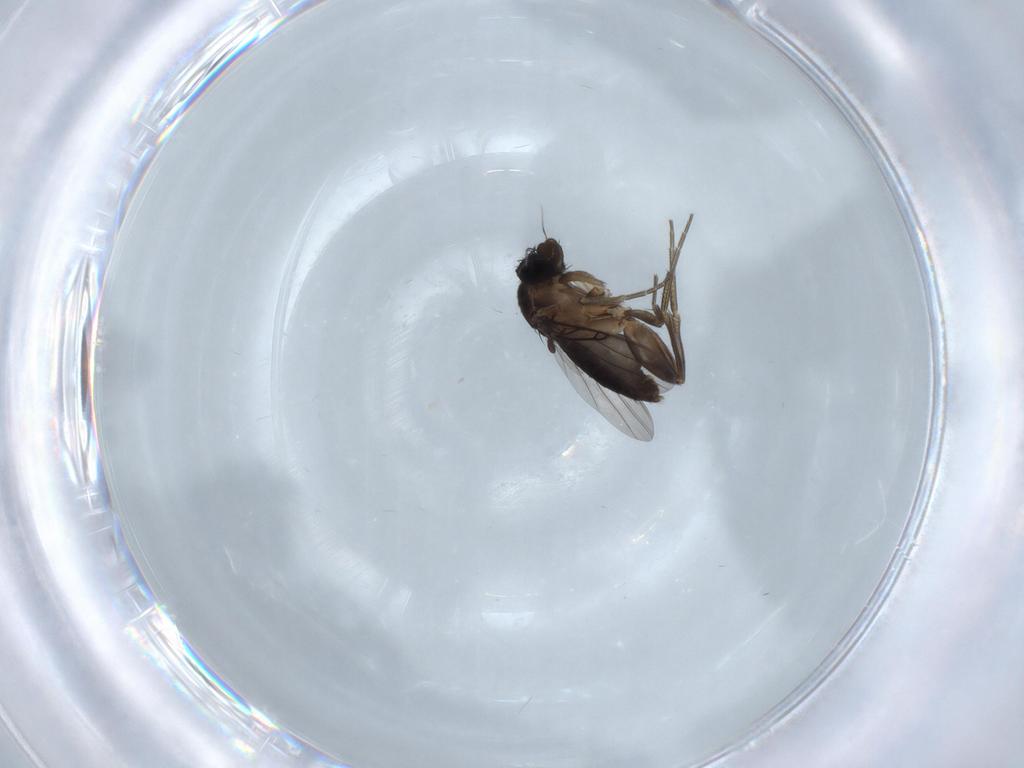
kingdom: Animalia
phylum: Arthropoda
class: Insecta
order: Diptera
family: Phoridae
